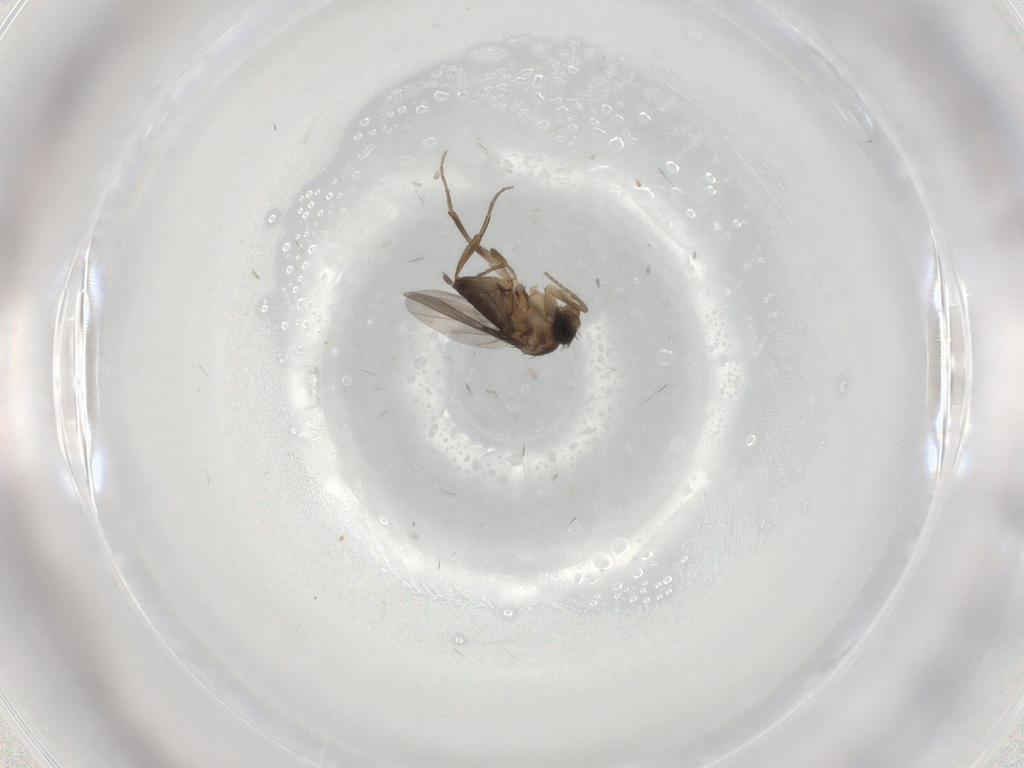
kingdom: Animalia
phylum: Arthropoda
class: Insecta
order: Diptera
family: Phoridae
